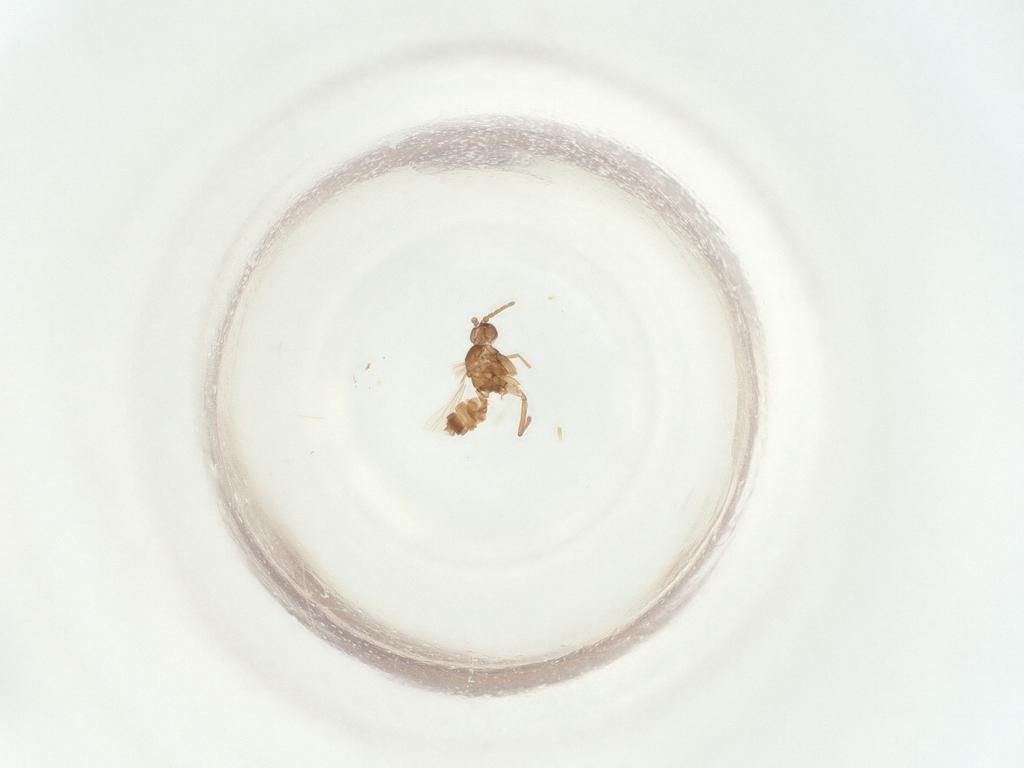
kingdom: Animalia
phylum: Arthropoda
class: Insecta
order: Diptera
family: Sciaridae
